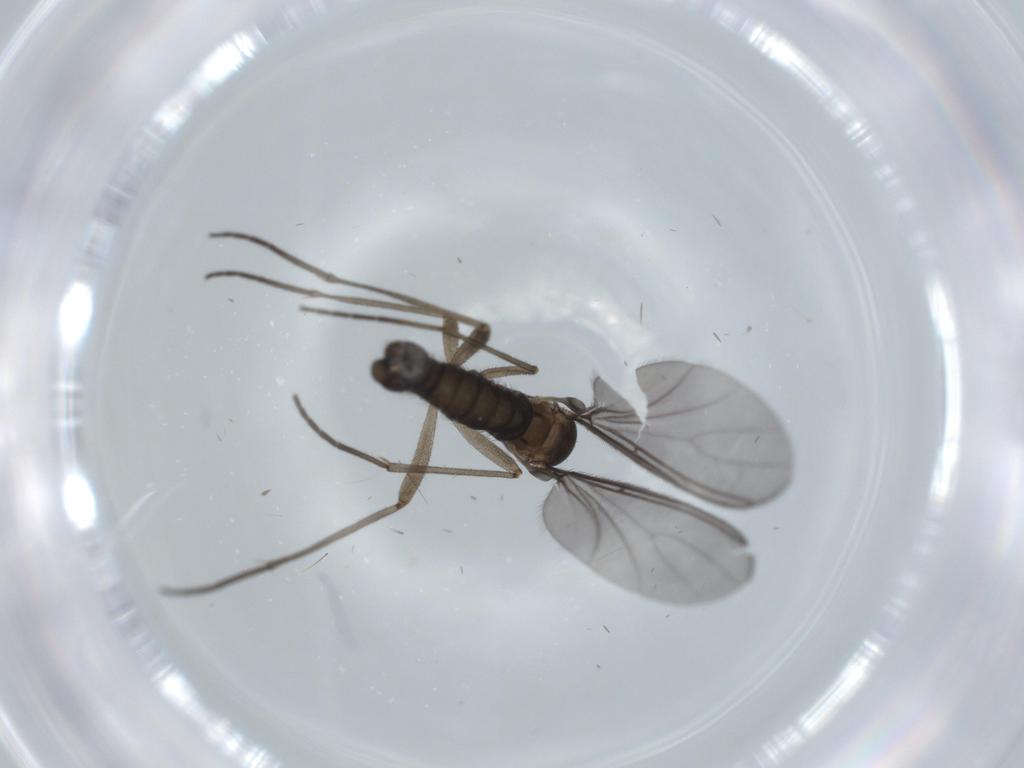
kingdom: Animalia
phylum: Arthropoda
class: Insecta
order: Diptera
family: Sciaridae
